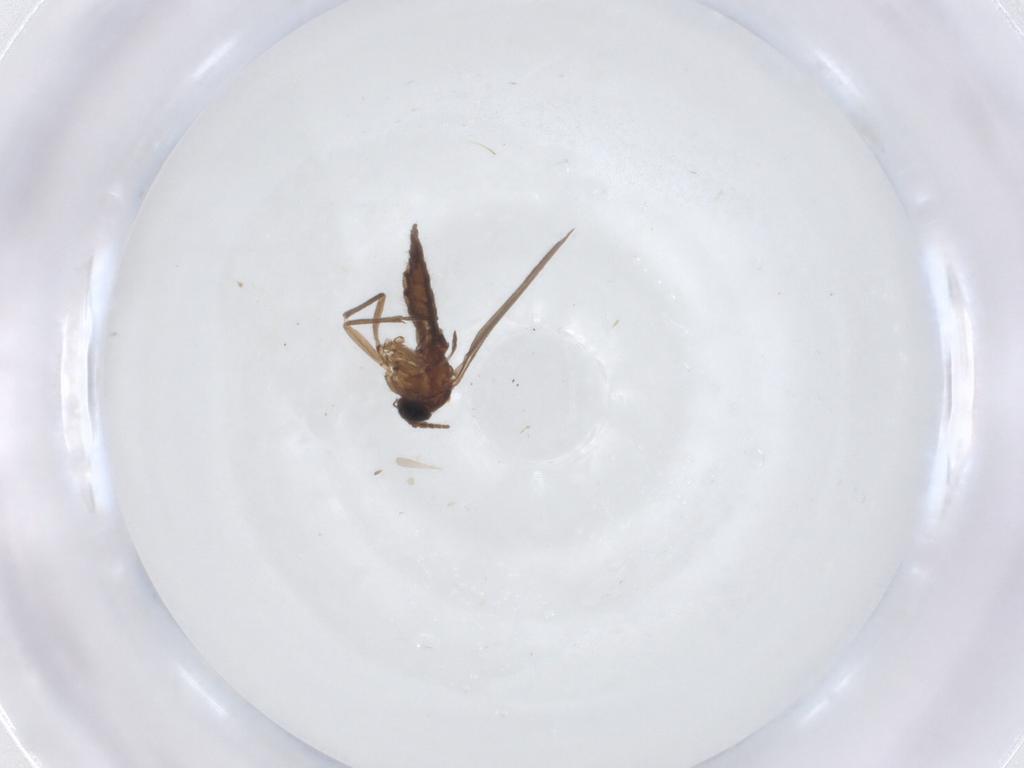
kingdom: Animalia
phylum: Arthropoda
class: Insecta
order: Diptera
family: Ceratopogonidae
